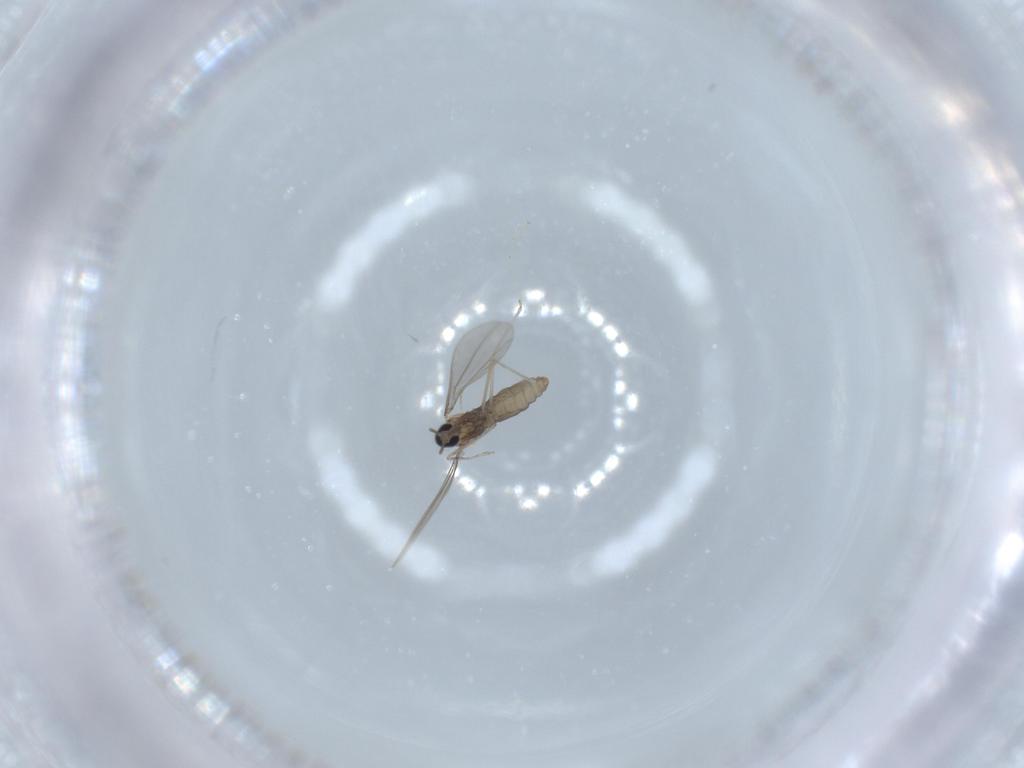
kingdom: Animalia
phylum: Arthropoda
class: Insecta
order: Diptera
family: Cecidomyiidae
